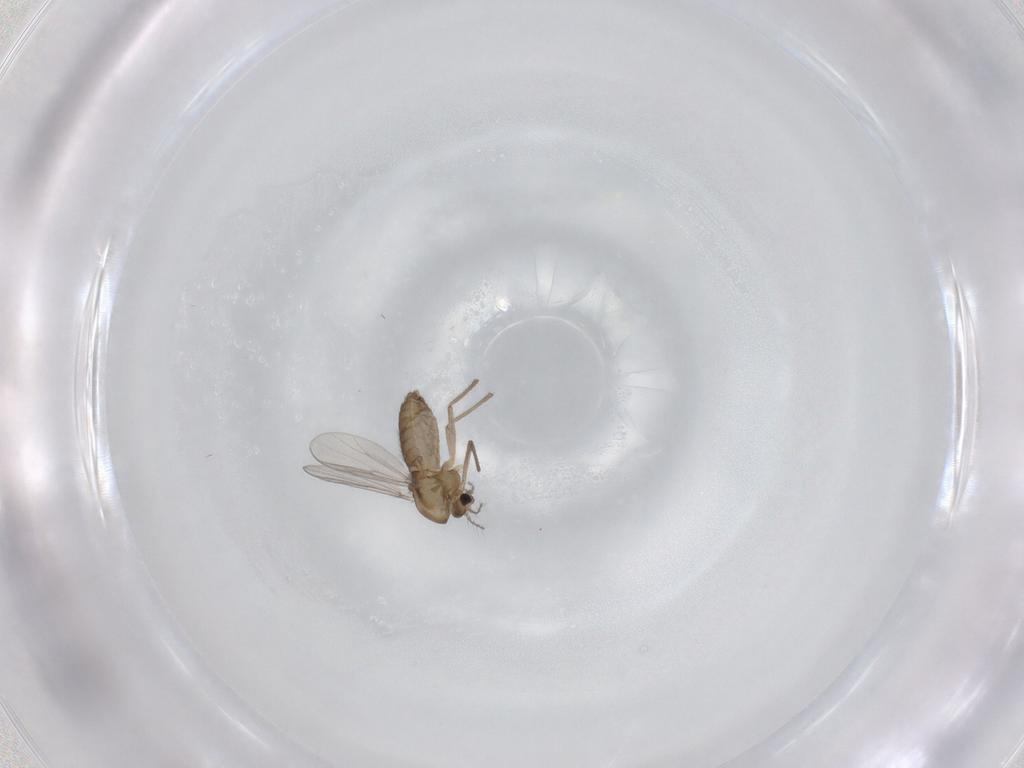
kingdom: Animalia
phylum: Arthropoda
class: Insecta
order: Diptera
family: Chironomidae
